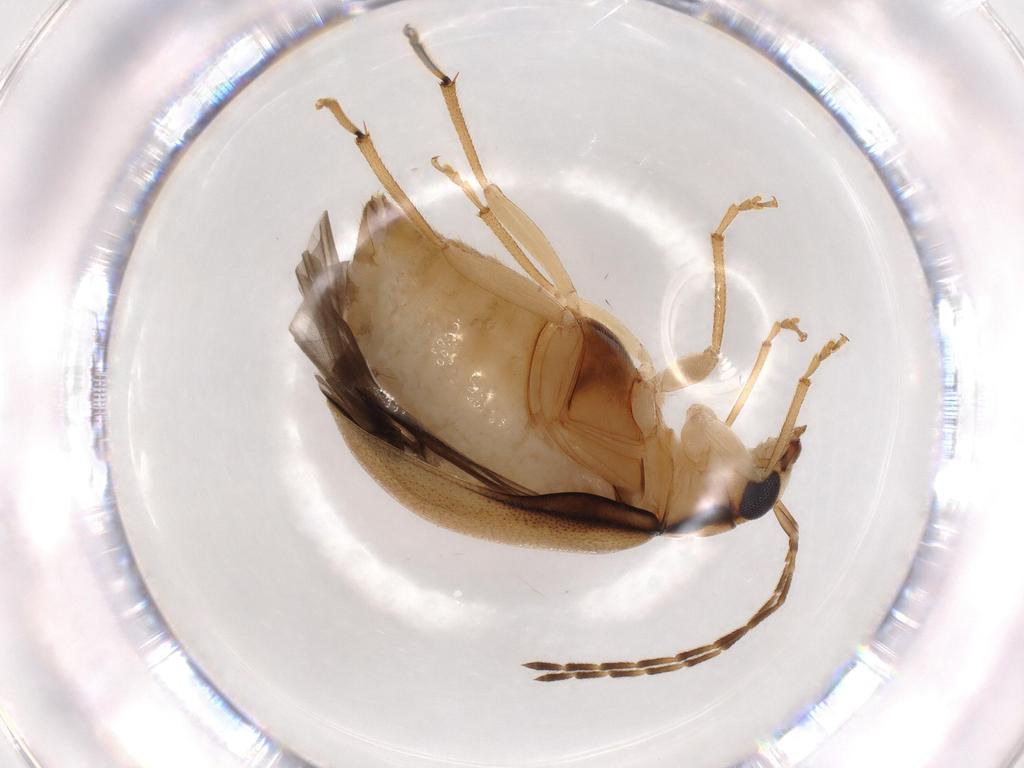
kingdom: Animalia
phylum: Arthropoda
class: Insecta
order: Coleoptera
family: Chrysomelidae
